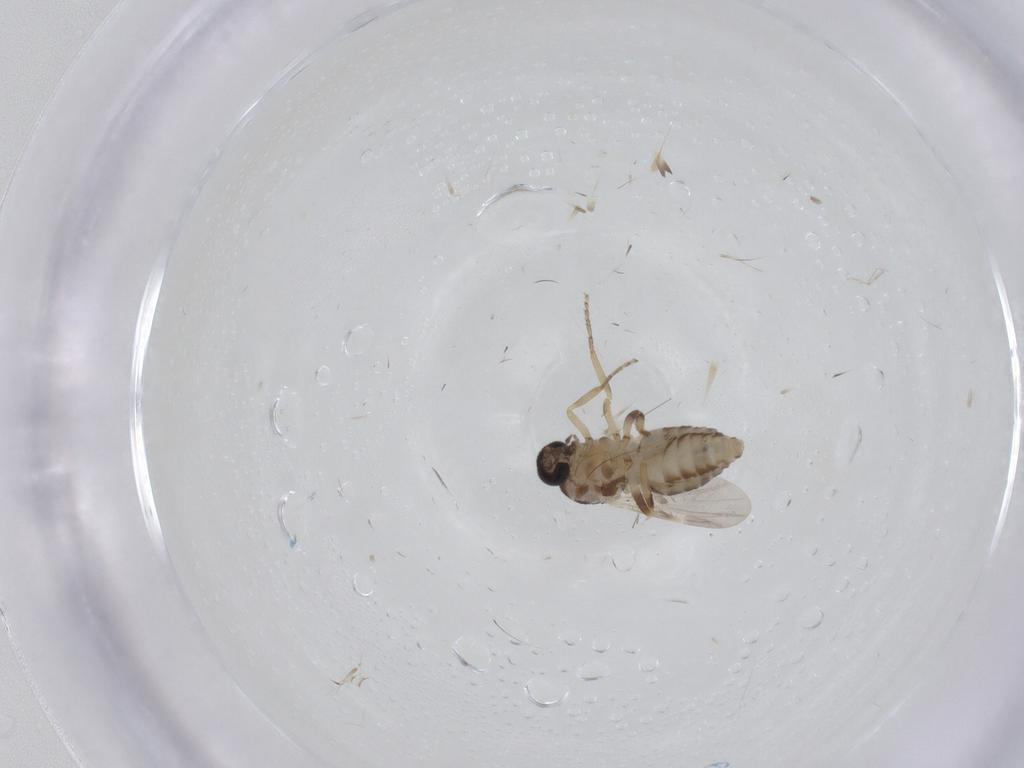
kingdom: Animalia
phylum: Arthropoda
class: Insecta
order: Diptera
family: Ceratopogonidae
